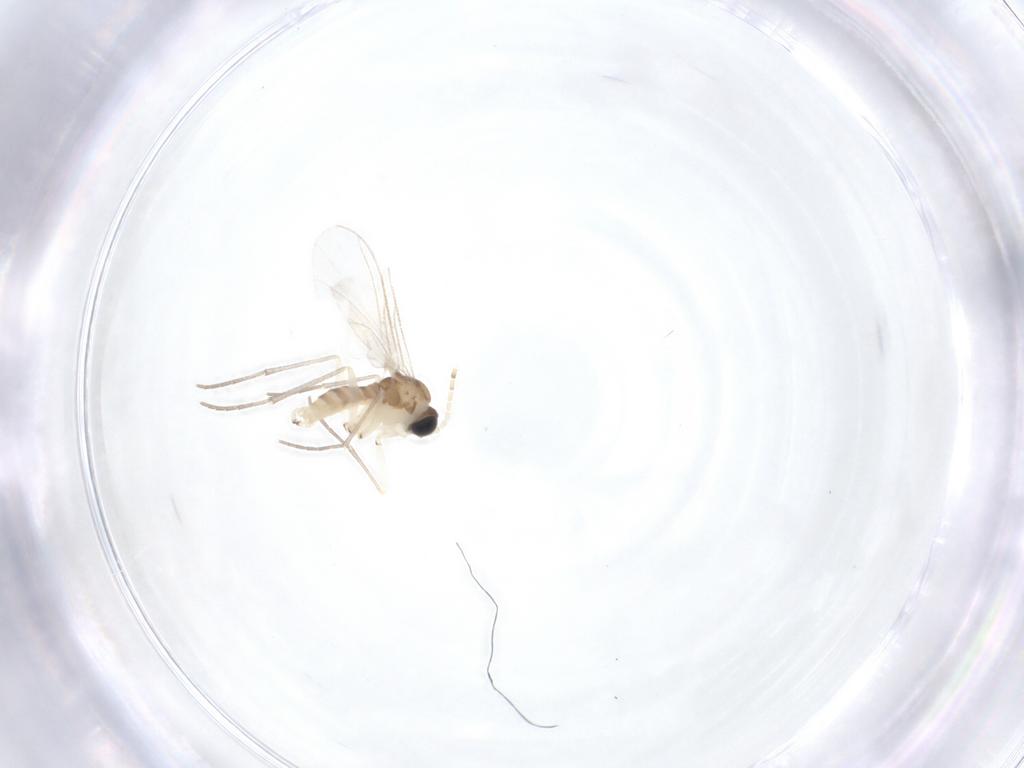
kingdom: Animalia
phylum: Arthropoda
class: Insecta
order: Diptera
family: Sciaridae
